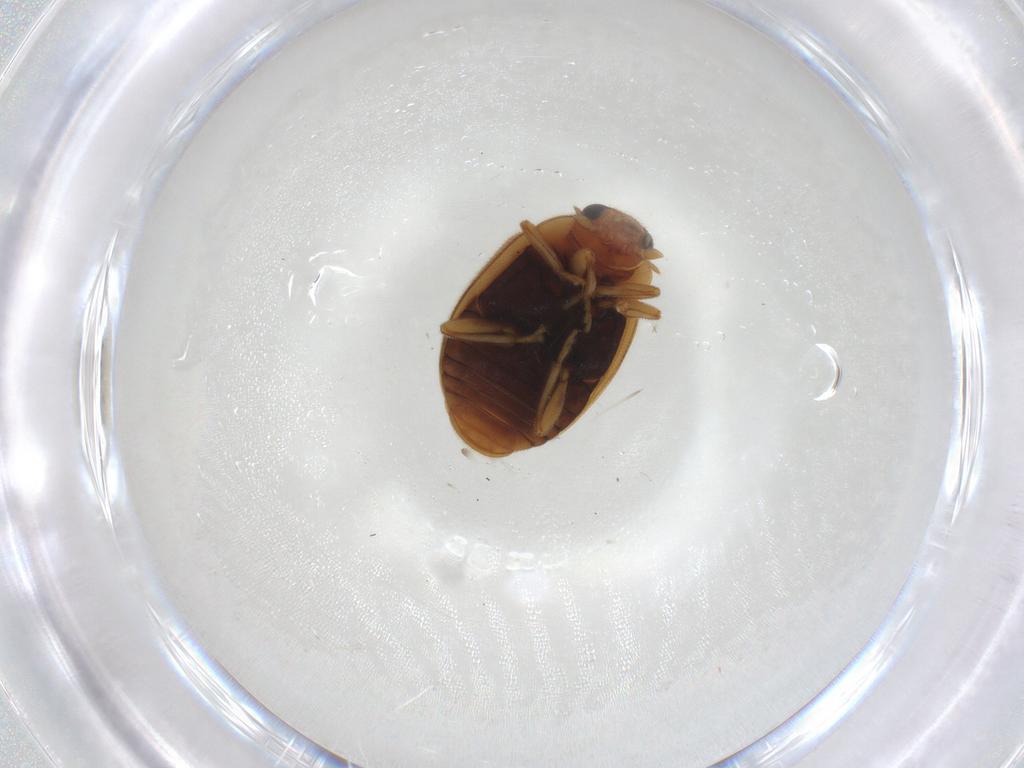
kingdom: Animalia
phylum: Arthropoda
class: Insecta
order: Coleoptera
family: Coccinellidae
